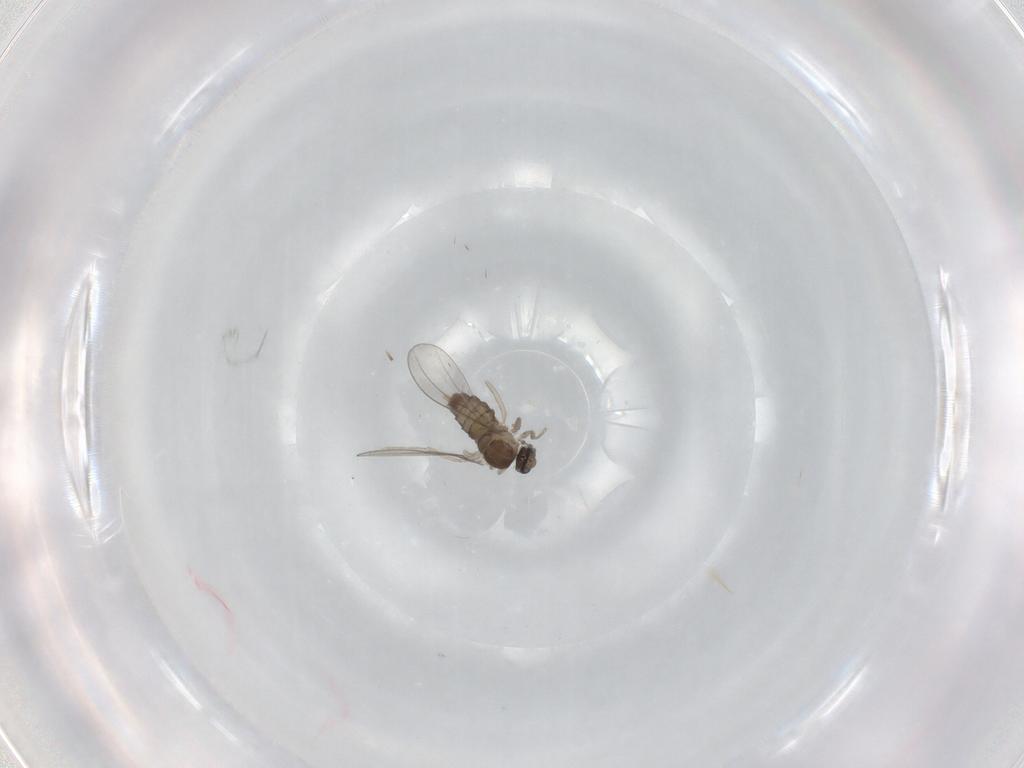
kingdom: Animalia
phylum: Arthropoda
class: Insecta
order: Diptera
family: Cecidomyiidae
